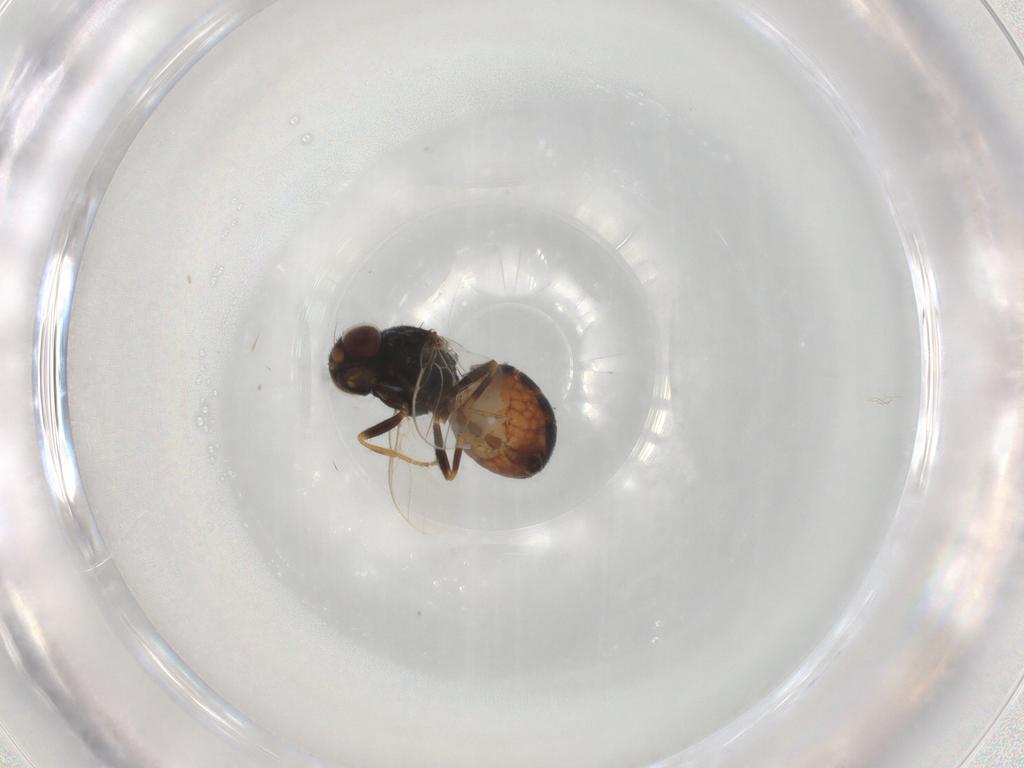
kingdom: Animalia
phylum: Arthropoda
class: Insecta
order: Diptera
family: Chloropidae
